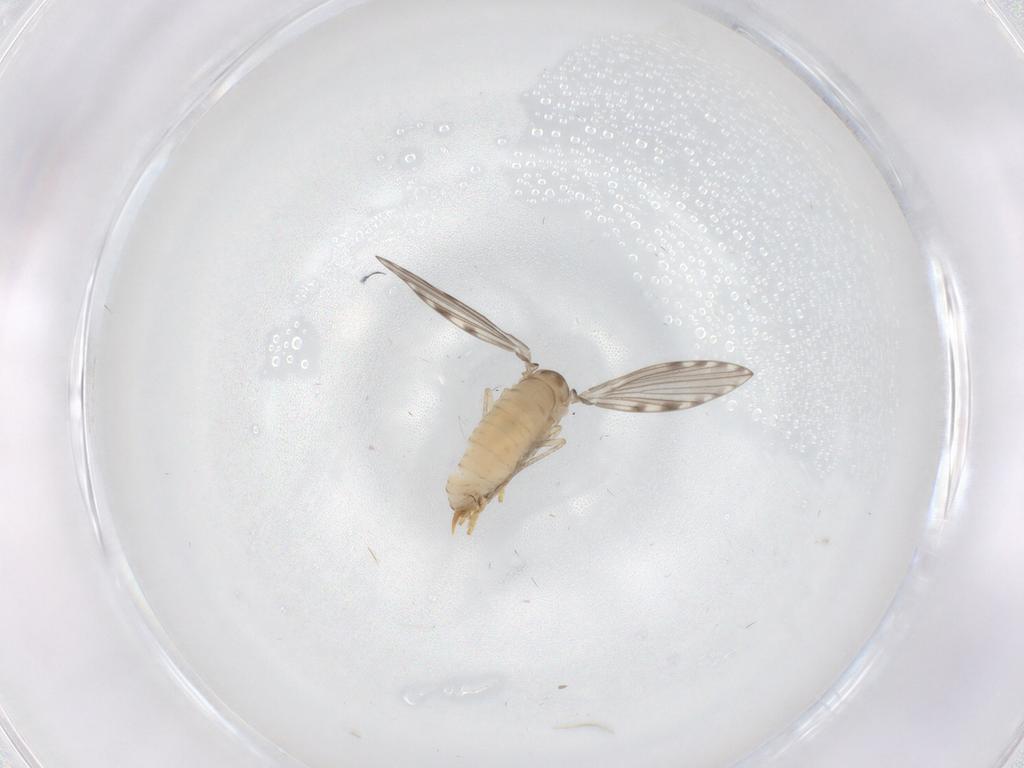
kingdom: Animalia
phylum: Arthropoda
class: Insecta
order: Diptera
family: Psychodidae
